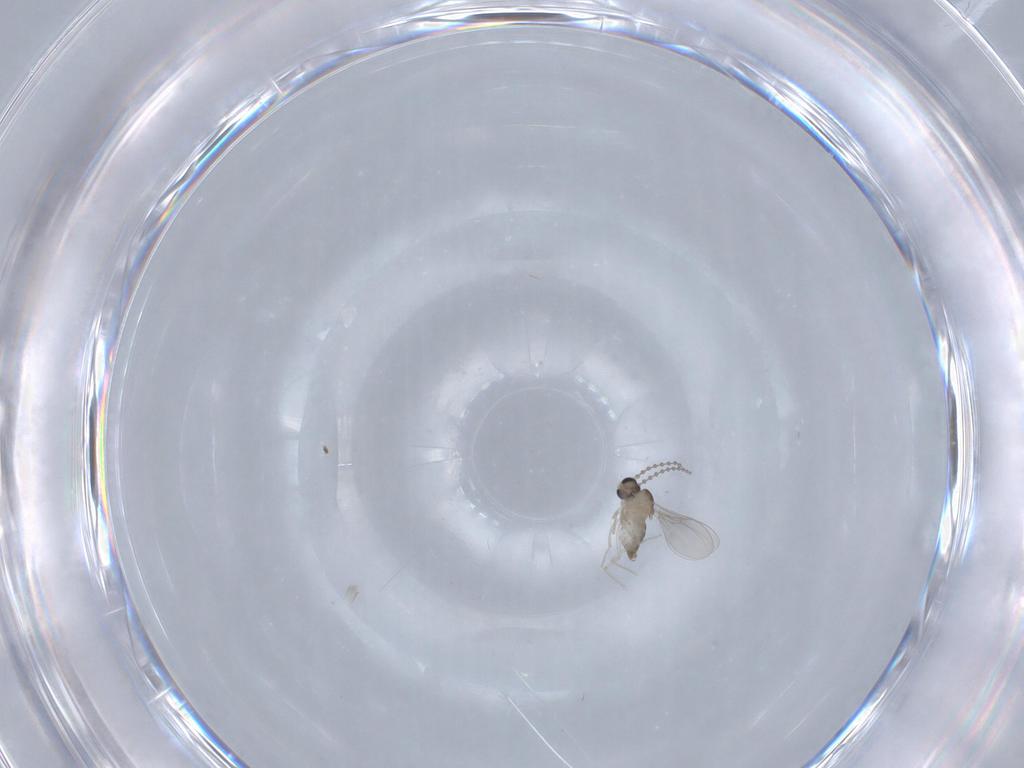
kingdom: Animalia
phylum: Arthropoda
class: Insecta
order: Diptera
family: Cecidomyiidae
